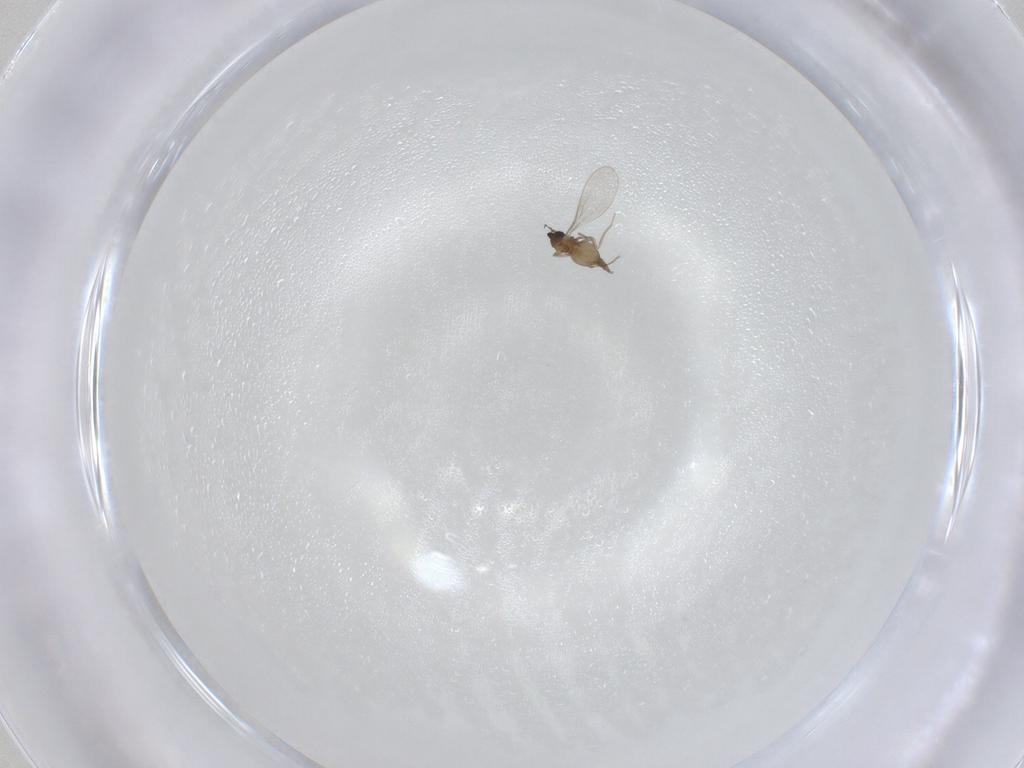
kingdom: Animalia
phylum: Arthropoda
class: Insecta
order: Diptera
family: Cecidomyiidae
